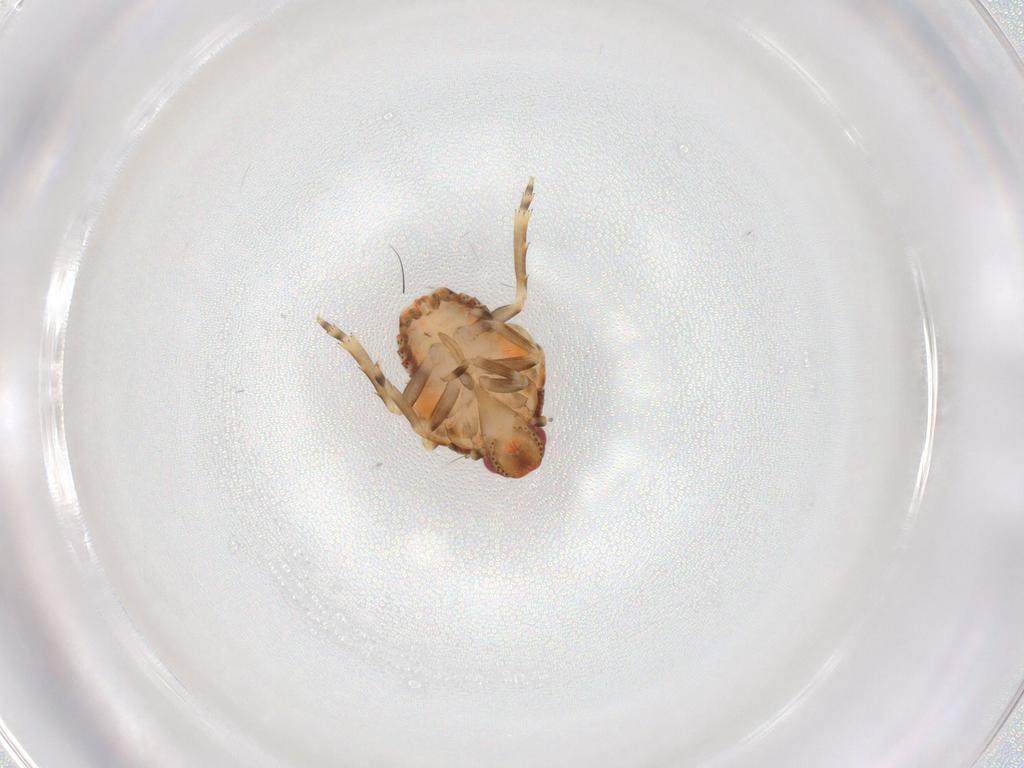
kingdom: Animalia
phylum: Arthropoda
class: Insecta
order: Hemiptera
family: Flatidae
